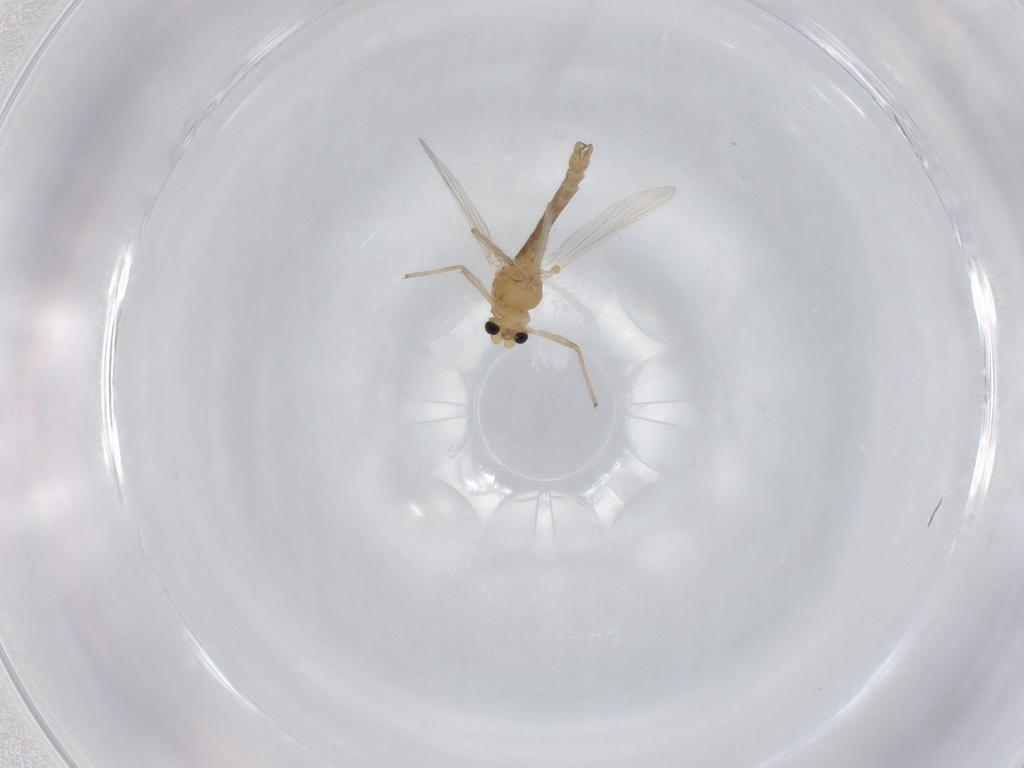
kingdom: Animalia
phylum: Arthropoda
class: Insecta
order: Diptera
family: Chironomidae
